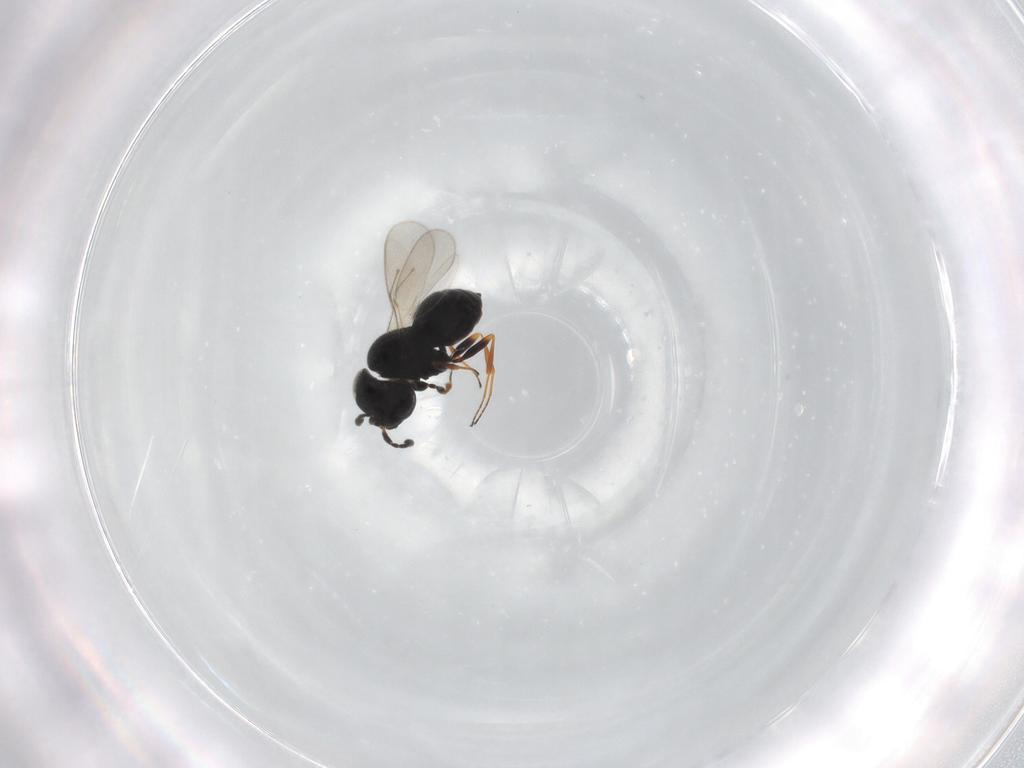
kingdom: Animalia
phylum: Arthropoda
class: Insecta
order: Hymenoptera
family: Scelionidae
